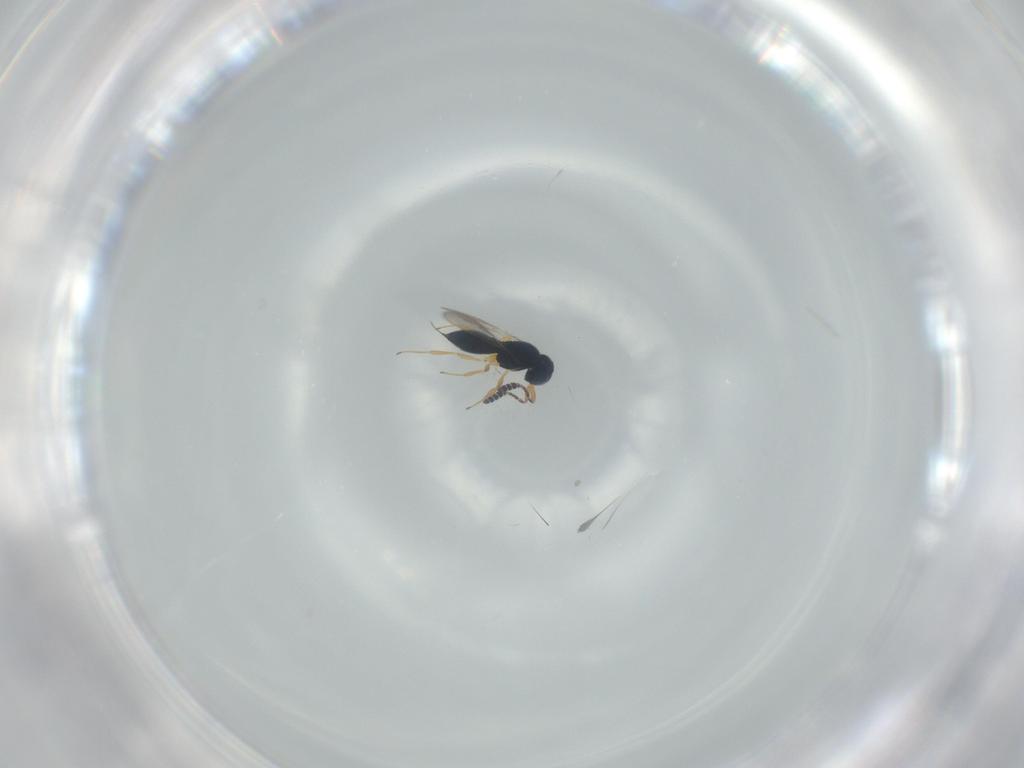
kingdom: Animalia
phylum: Arthropoda
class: Insecta
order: Hymenoptera
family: Scelionidae
